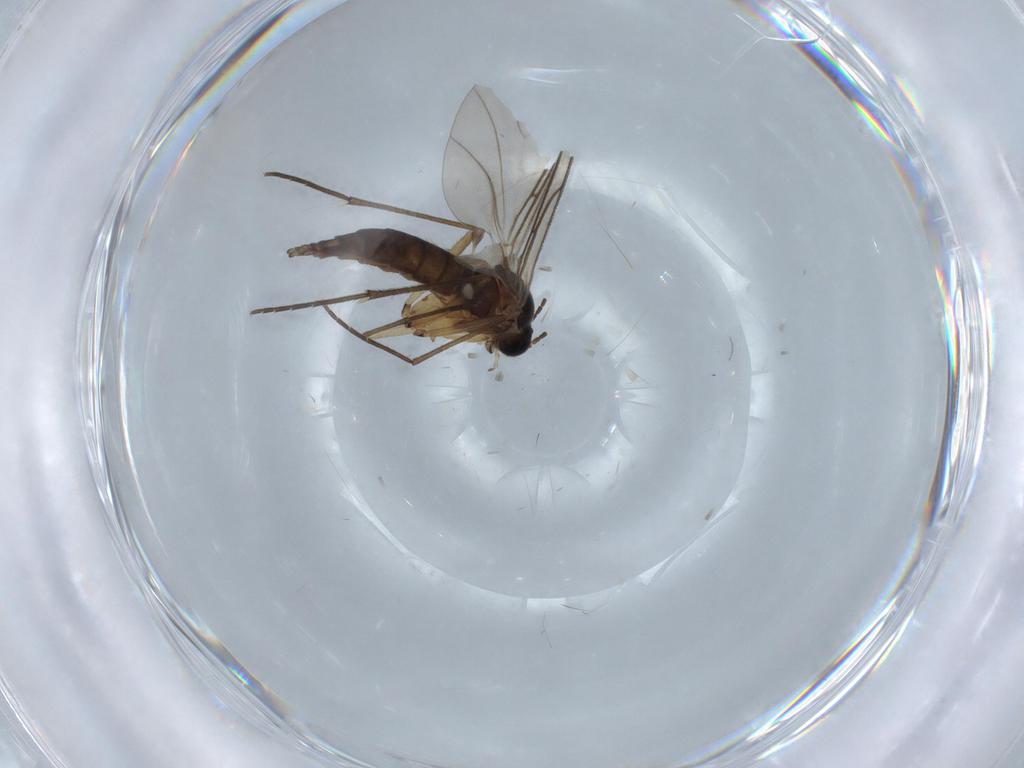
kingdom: Animalia
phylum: Arthropoda
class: Insecta
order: Diptera
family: Sciaridae
